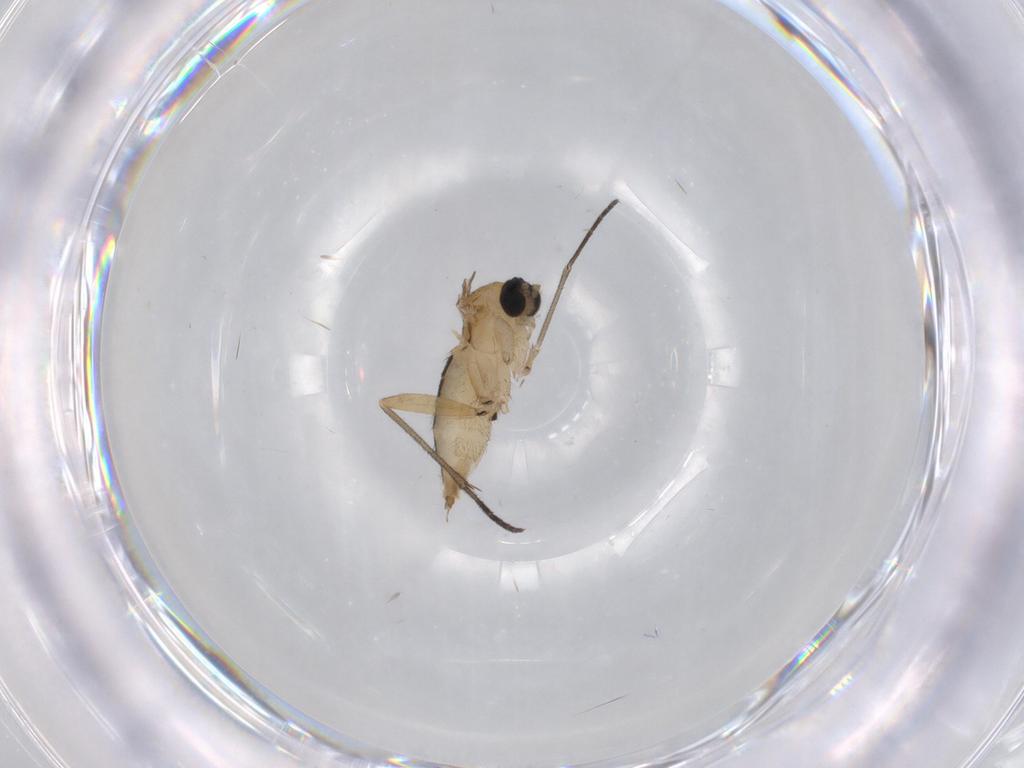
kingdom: Animalia
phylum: Arthropoda
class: Insecta
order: Diptera
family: Sciaridae
